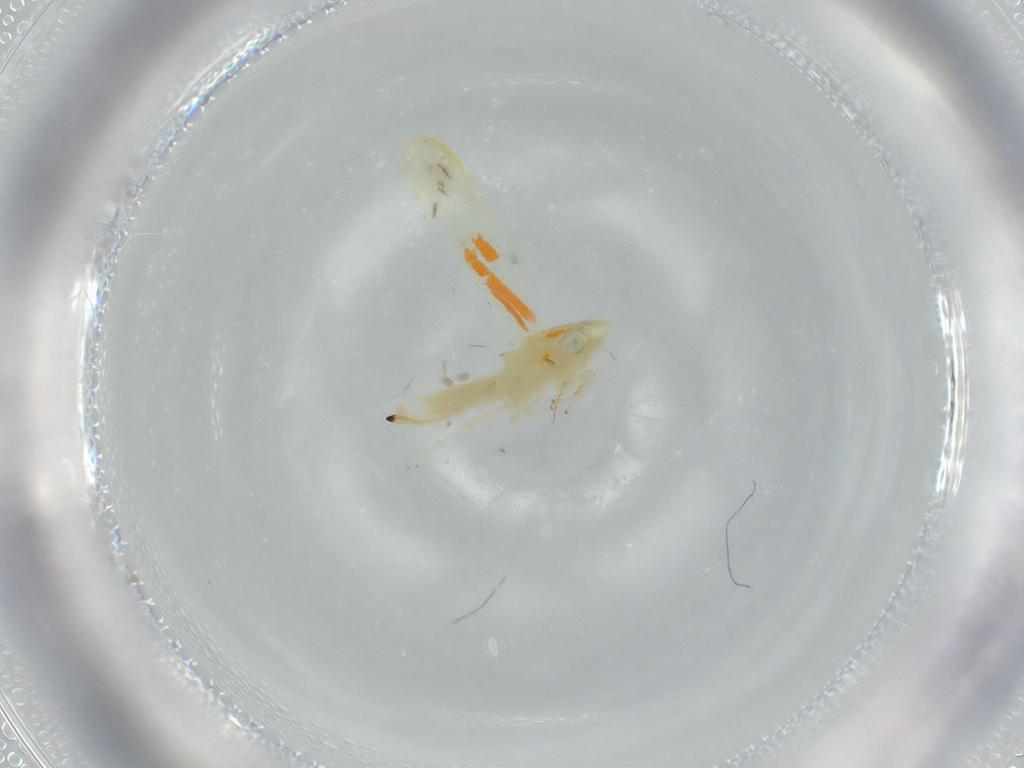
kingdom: Animalia
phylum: Arthropoda
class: Insecta
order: Hemiptera
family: Cicadellidae
